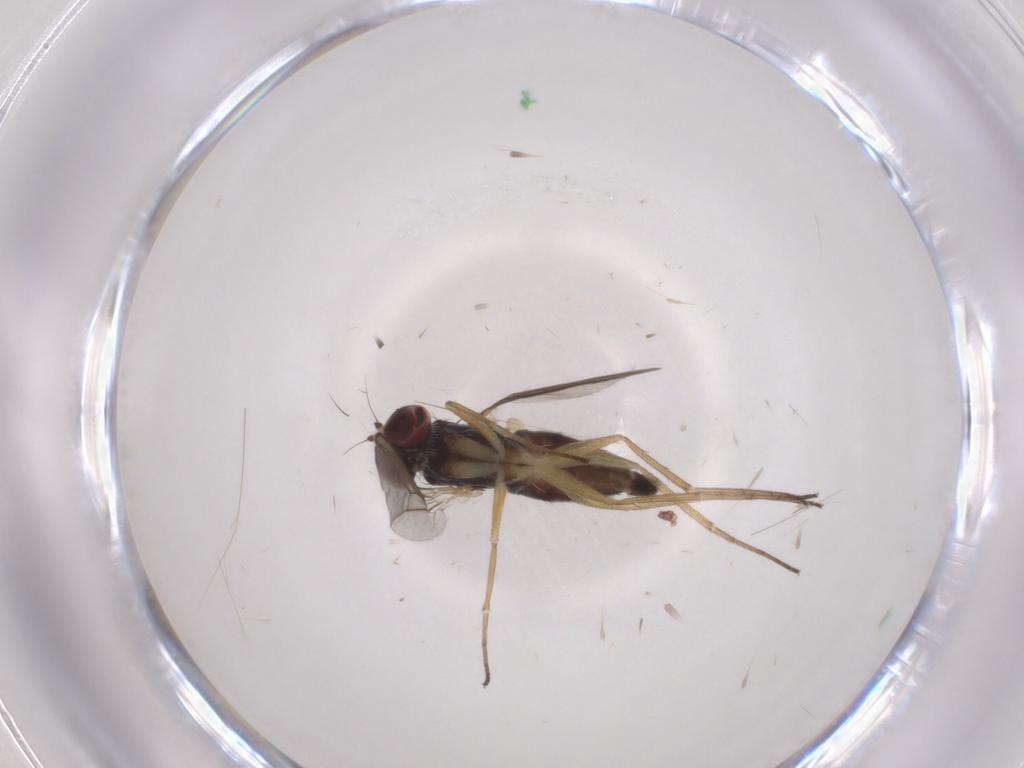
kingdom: Animalia
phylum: Arthropoda
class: Insecta
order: Diptera
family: Dolichopodidae
